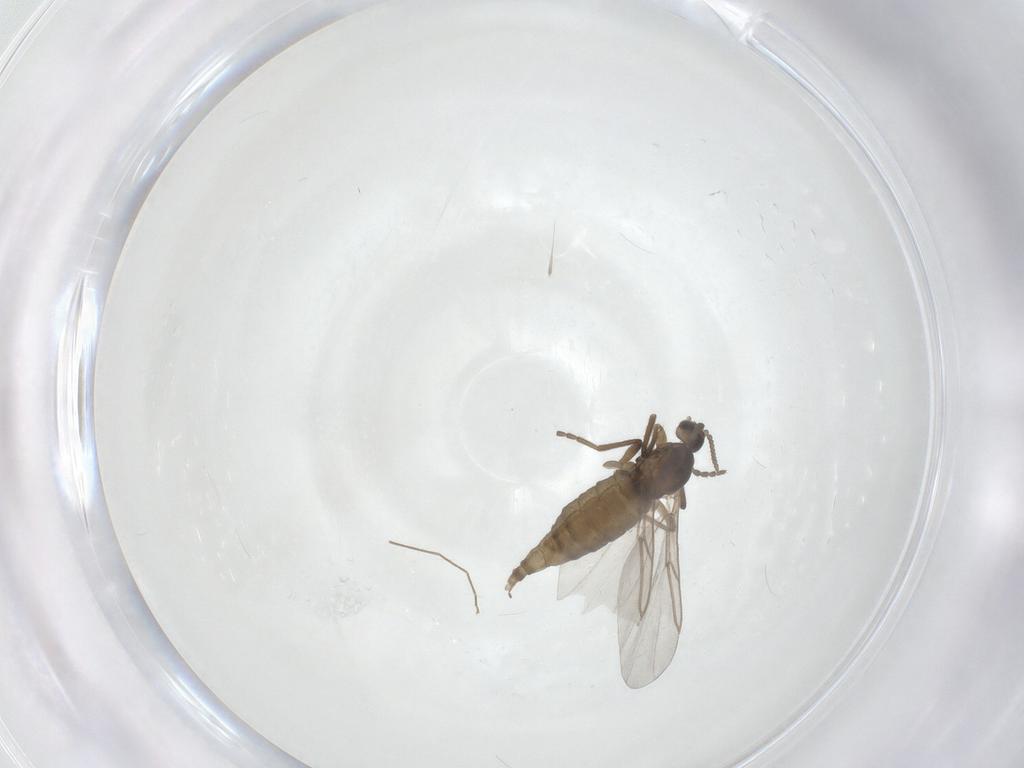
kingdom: Animalia
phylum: Arthropoda
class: Insecta
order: Diptera
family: Cecidomyiidae
